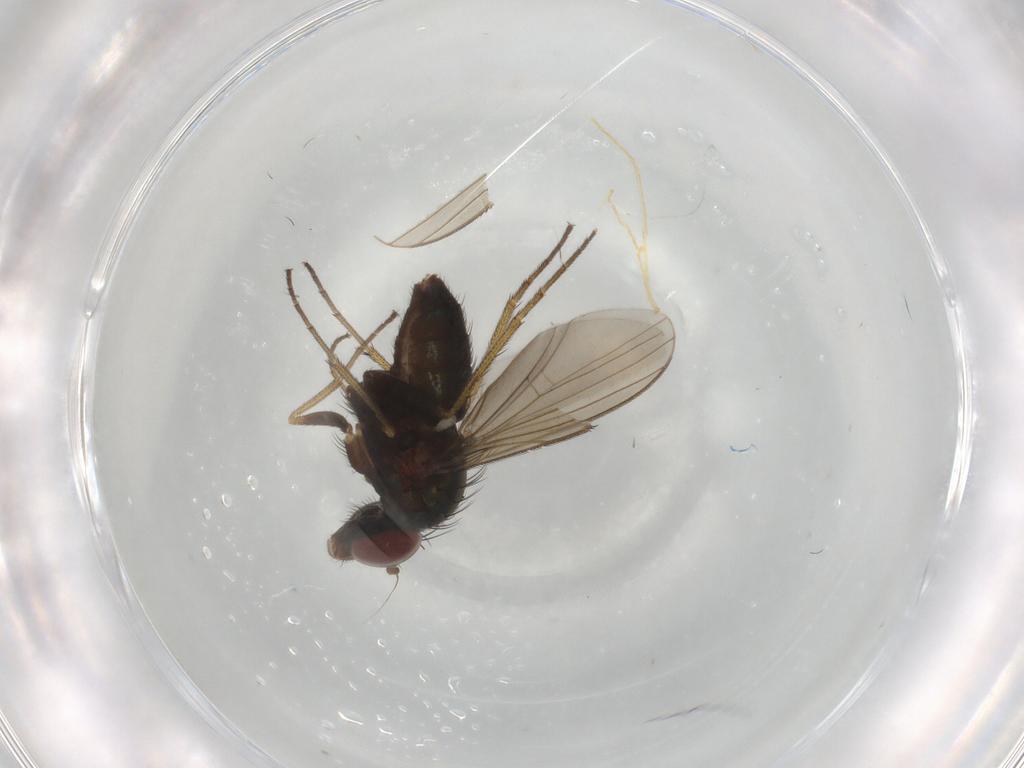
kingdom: Animalia
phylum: Arthropoda
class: Insecta
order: Diptera
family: Dolichopodidae
